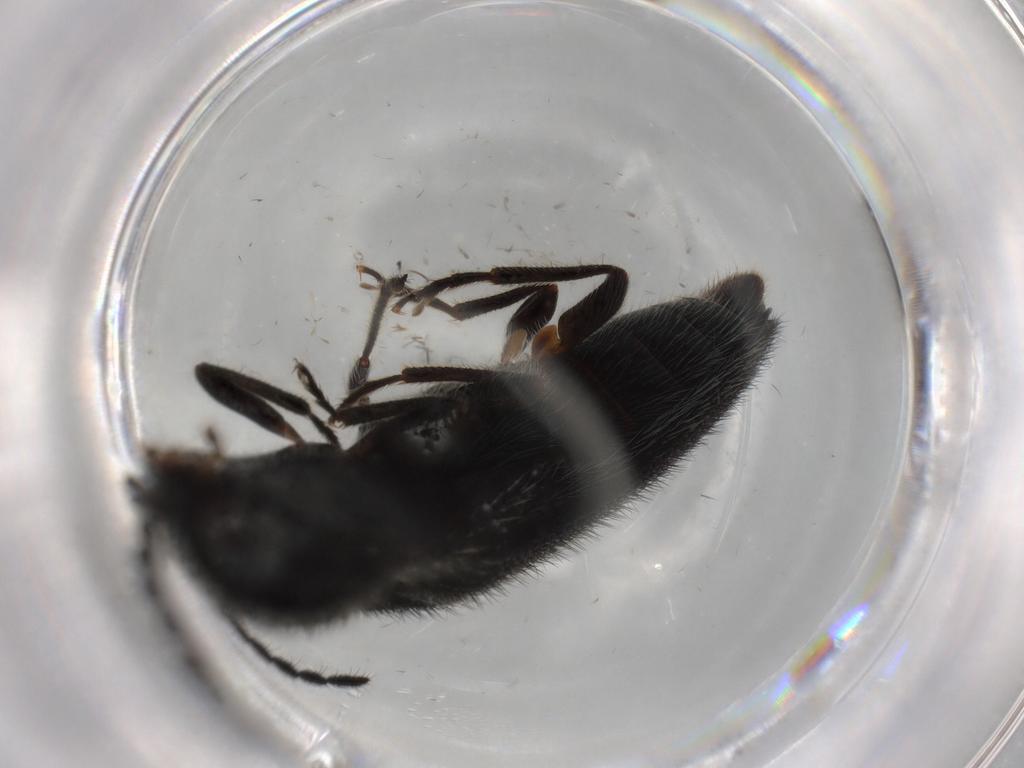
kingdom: Animalia
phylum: Arthropoda
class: Insecta
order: Coleoptera
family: Elateridae
